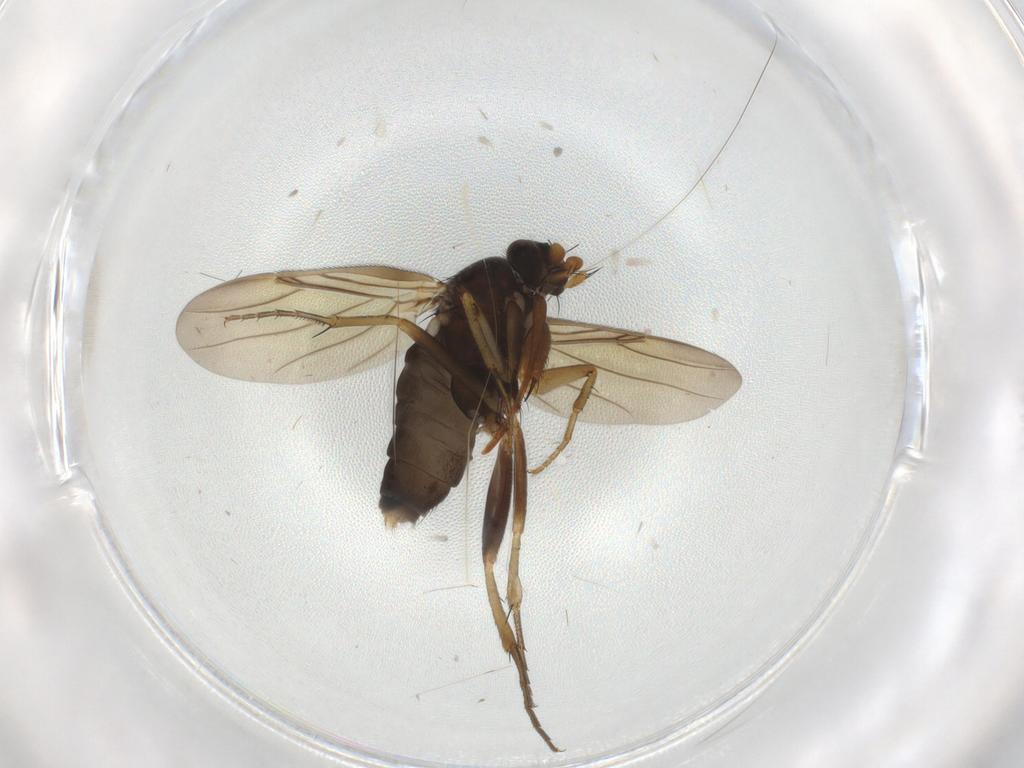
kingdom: Animalia
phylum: Arthropoda
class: Insecta
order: Diptera
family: Phoridae
